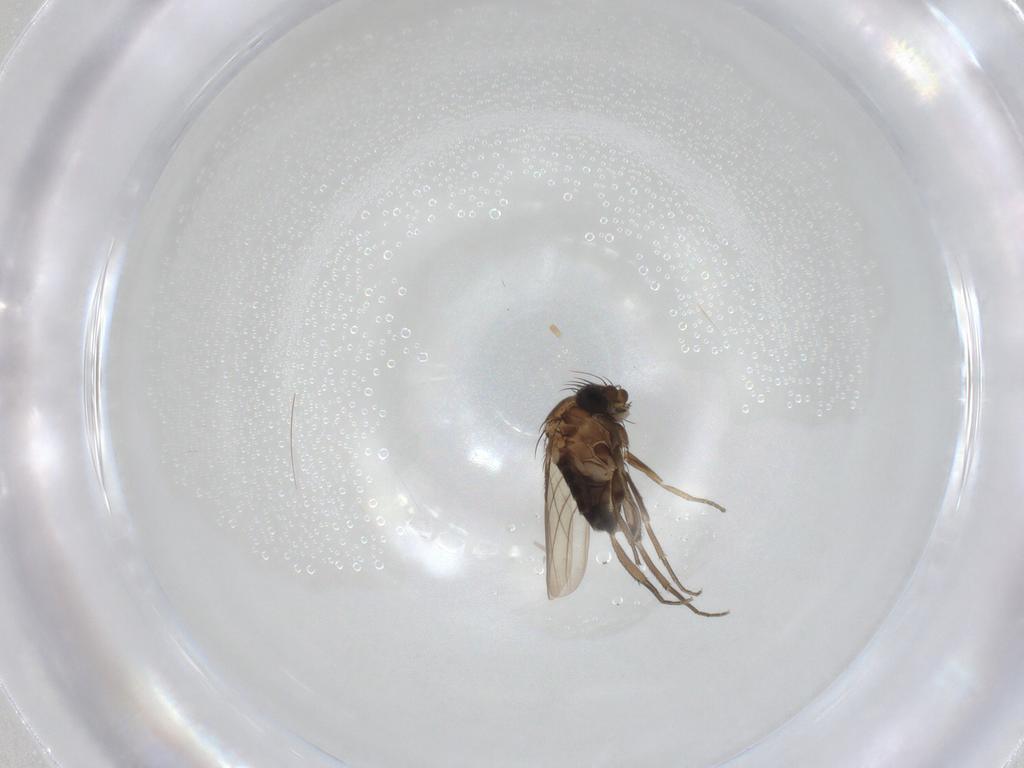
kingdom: Animalia
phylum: Arthropoda
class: Insecta
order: Diptera
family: Phoridae
